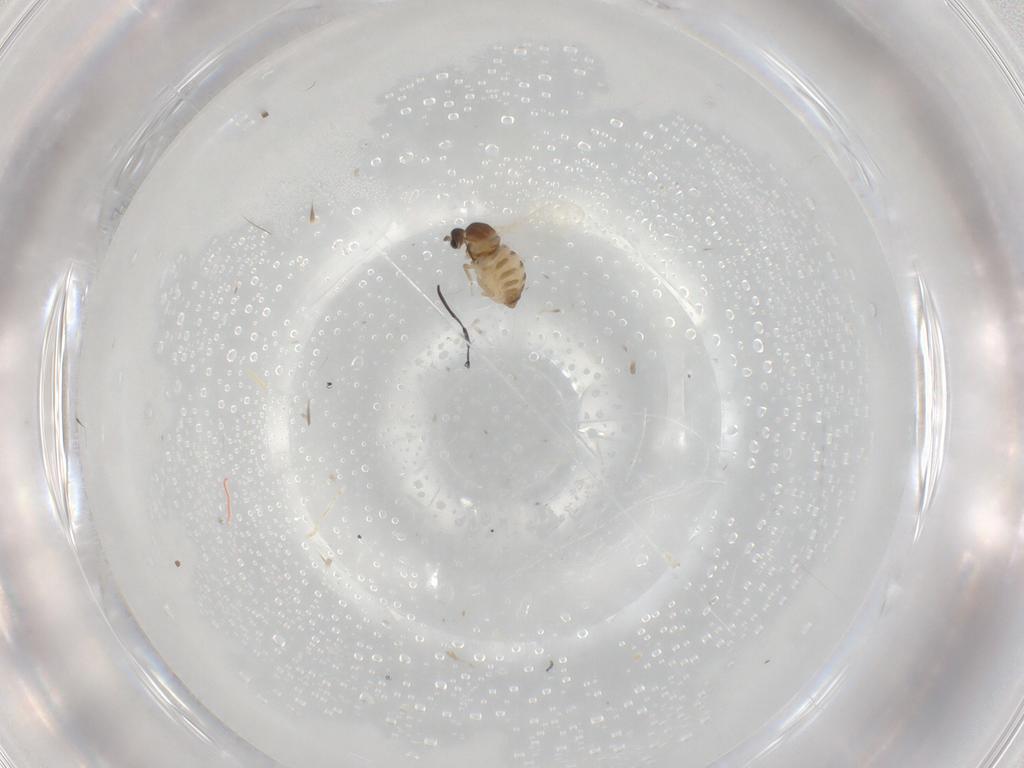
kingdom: Animalia
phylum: Arthropoda
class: Insecta
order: Diptera
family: Cecidomyiidae
